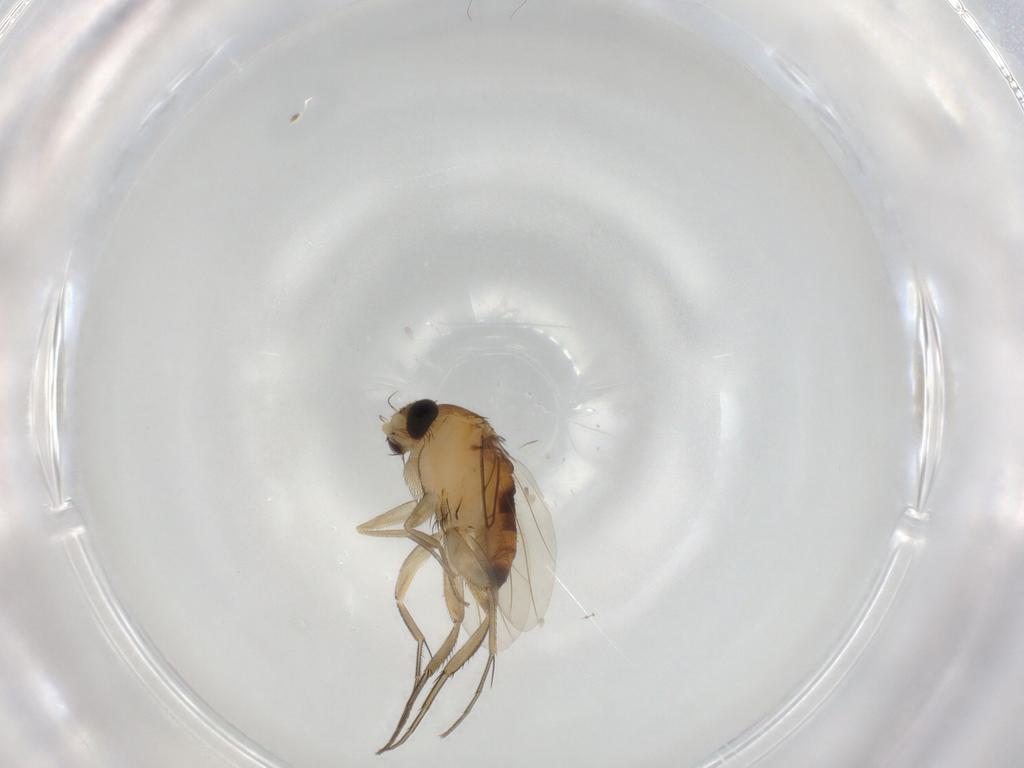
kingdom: Animalia
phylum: Arthropoda
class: Insecta
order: Diptera
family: Phoridae
